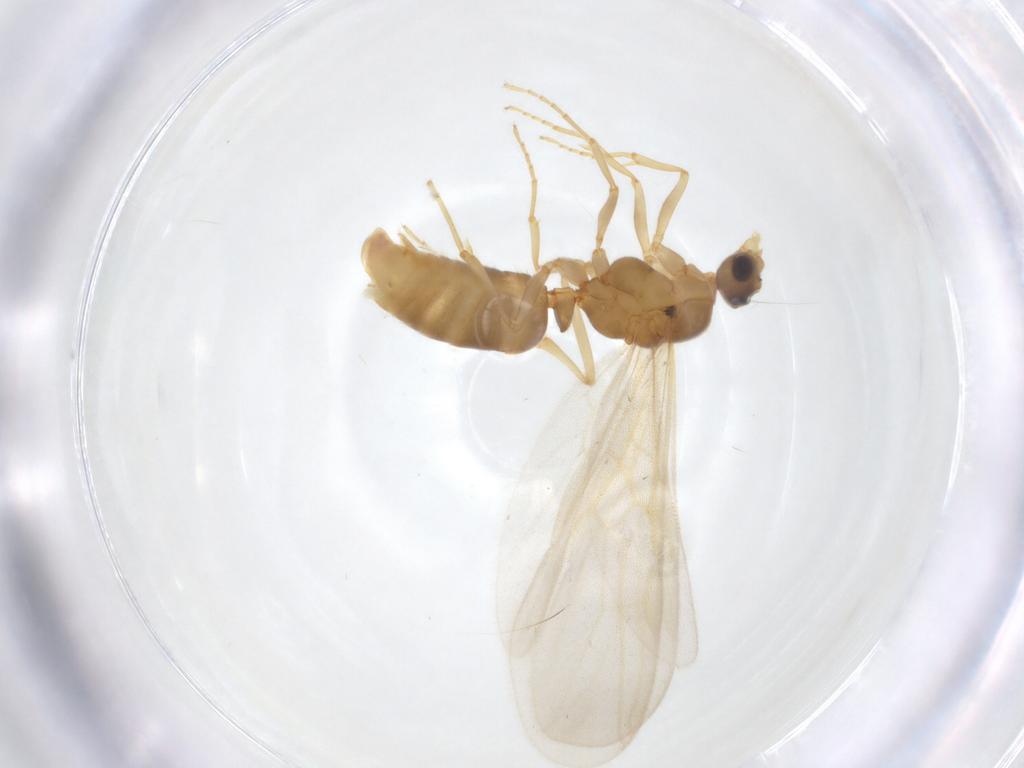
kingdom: Animalia
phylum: Arthropoda
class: Insecta
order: Hymenoptera
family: Formicidae
